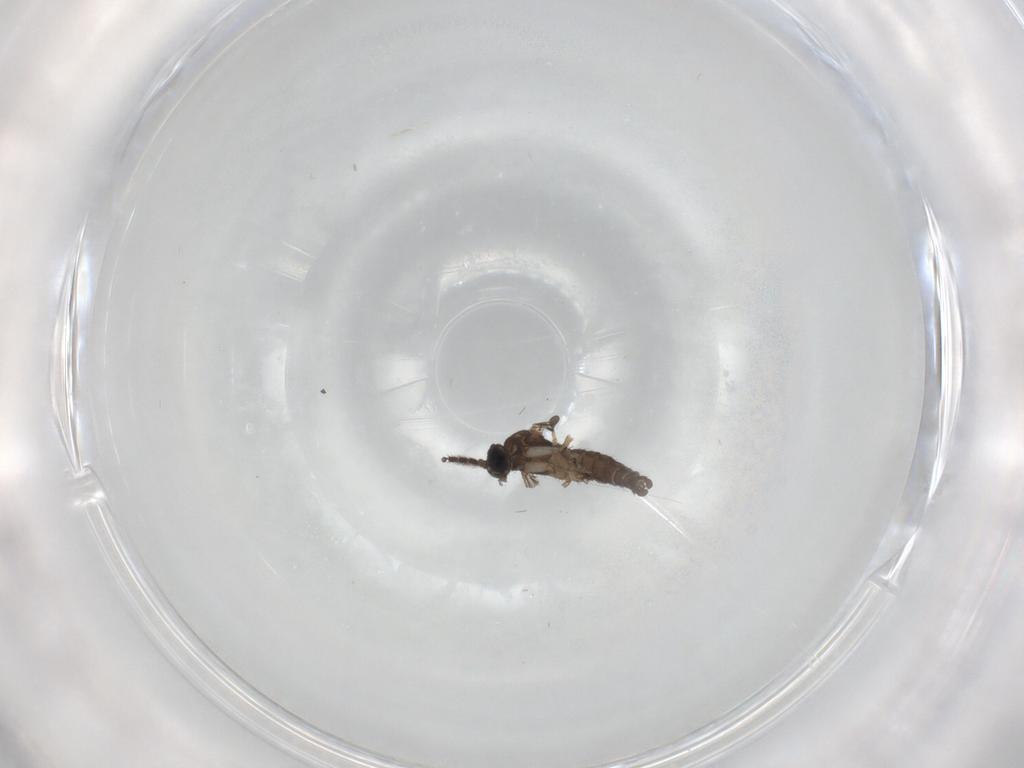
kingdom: Animalia
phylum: Arthropoda
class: Insecta
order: Diptera
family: Sciaridae
